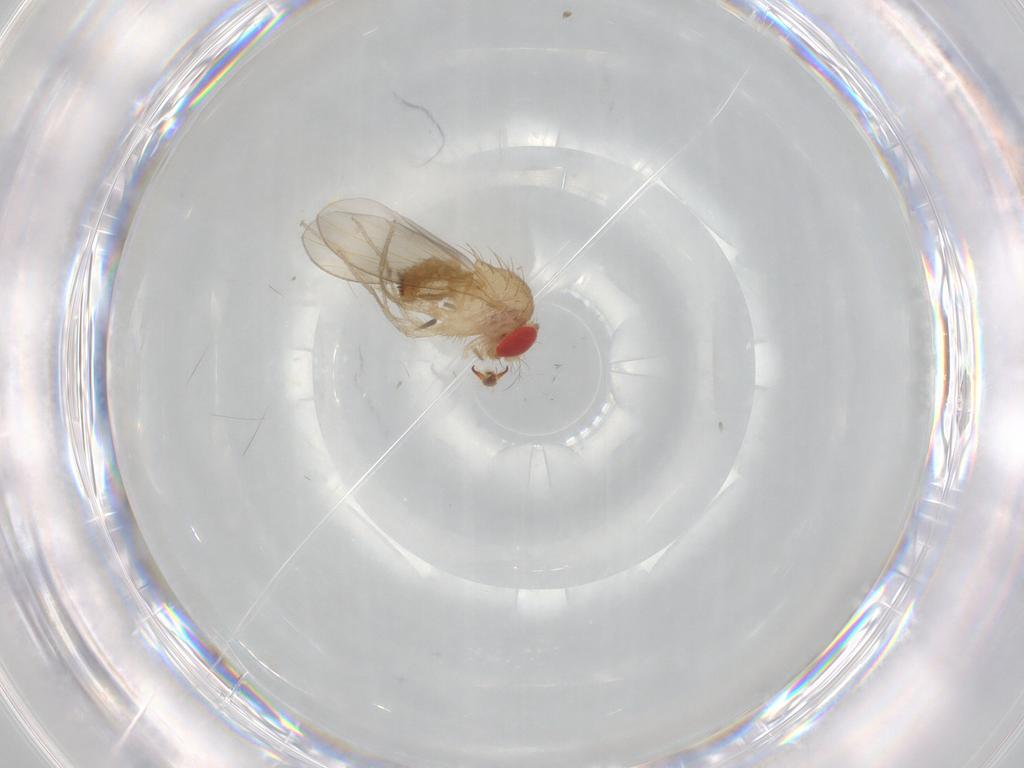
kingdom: Animalia
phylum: Arthropoda
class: Insecta
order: Diptera
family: Drosophilidae
